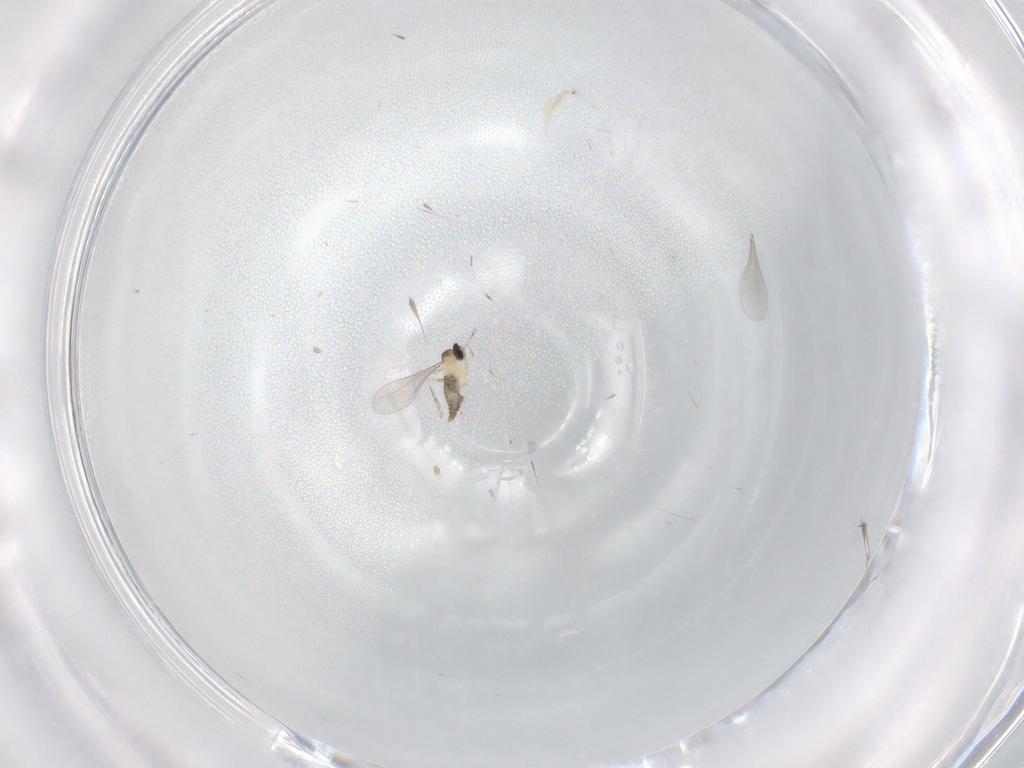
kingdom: Animalia
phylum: Arthropoda
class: Insecta
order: Diptera
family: Cecidomyiidae
